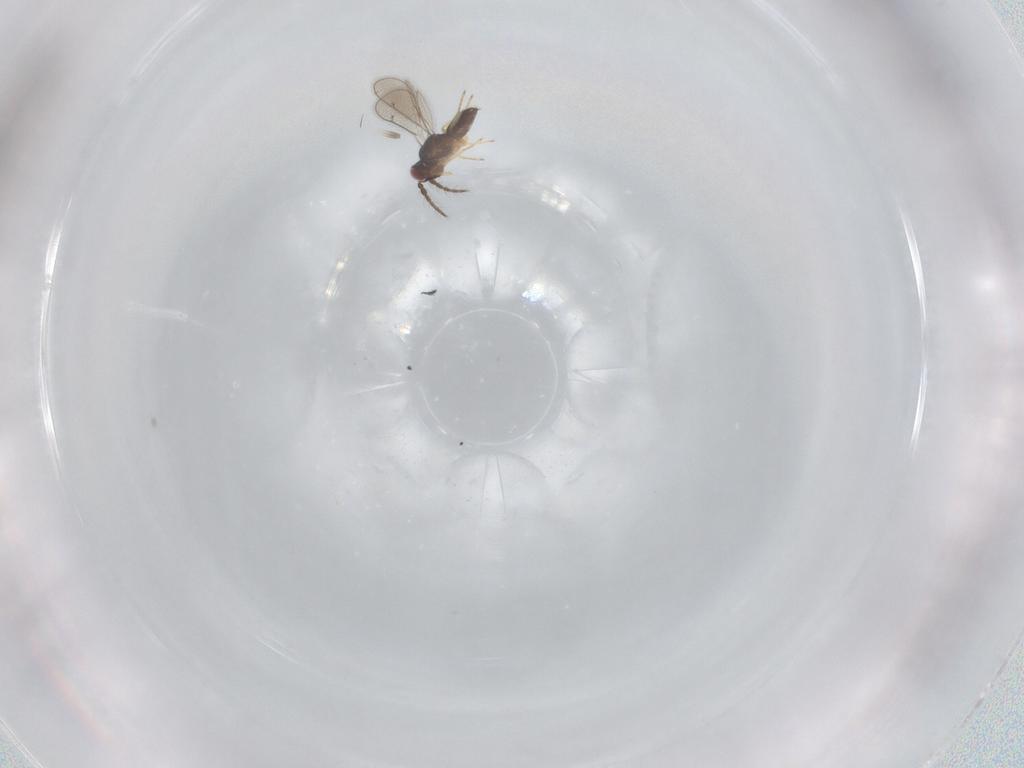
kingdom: Animalia
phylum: Arthropoda
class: Insecta
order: Hymenoptera
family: Eulophidae
